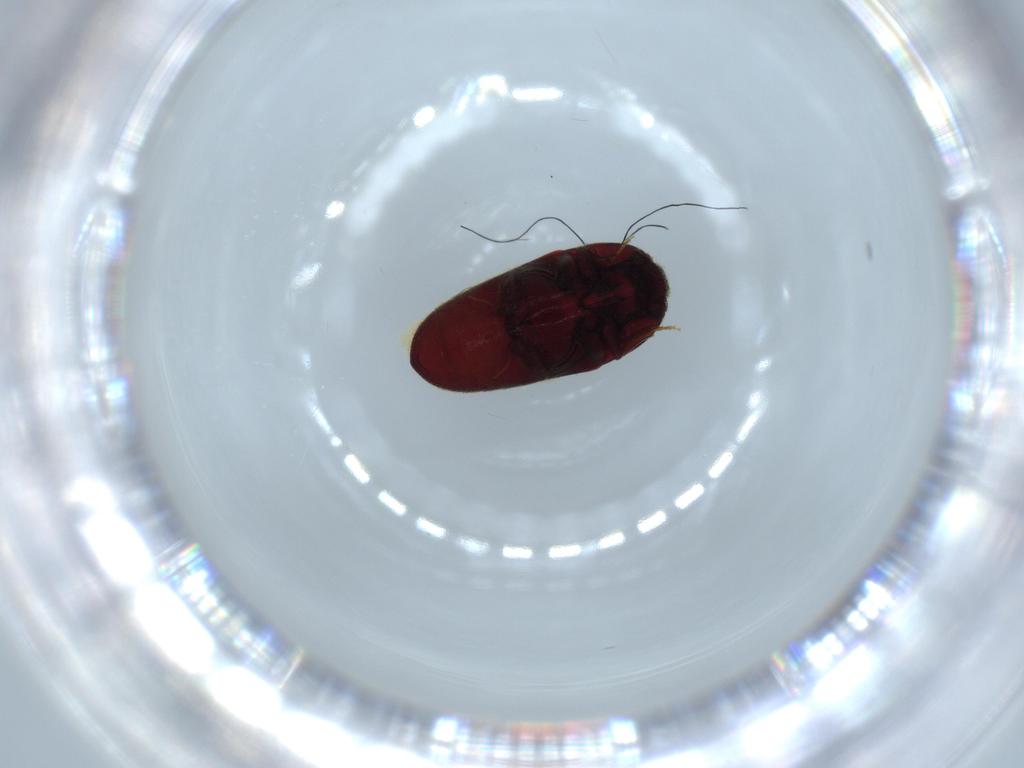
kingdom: Animalia
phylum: Arthropoda
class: Insecta
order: Coleoptera
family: Throscidae
